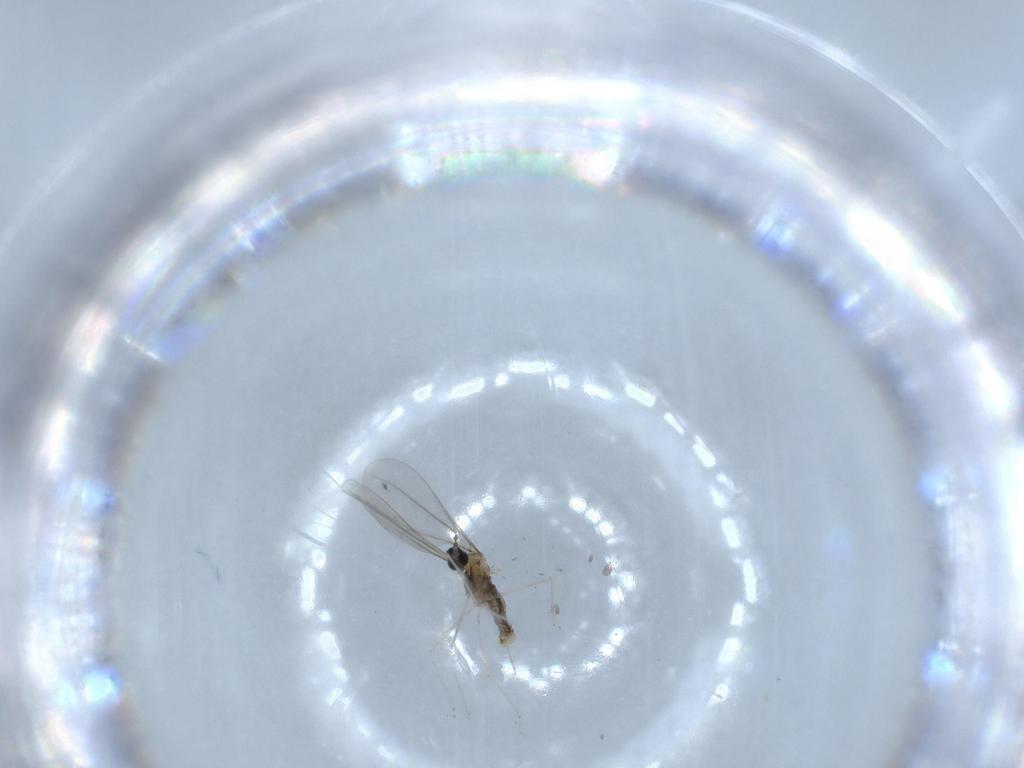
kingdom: Animalia
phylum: Arthropoda
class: Insecta
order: Diptera
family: Cecidomyiidae
